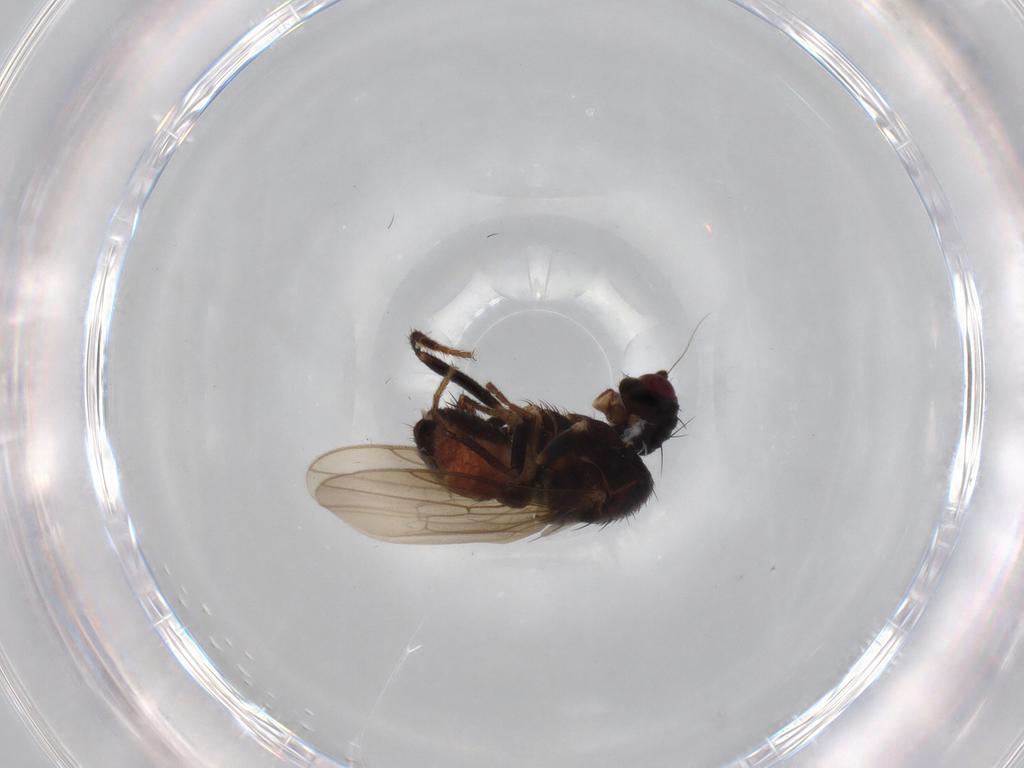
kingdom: Animalia
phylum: Arthropoda
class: Insecta
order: Diptera
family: Sphaeroceridae
